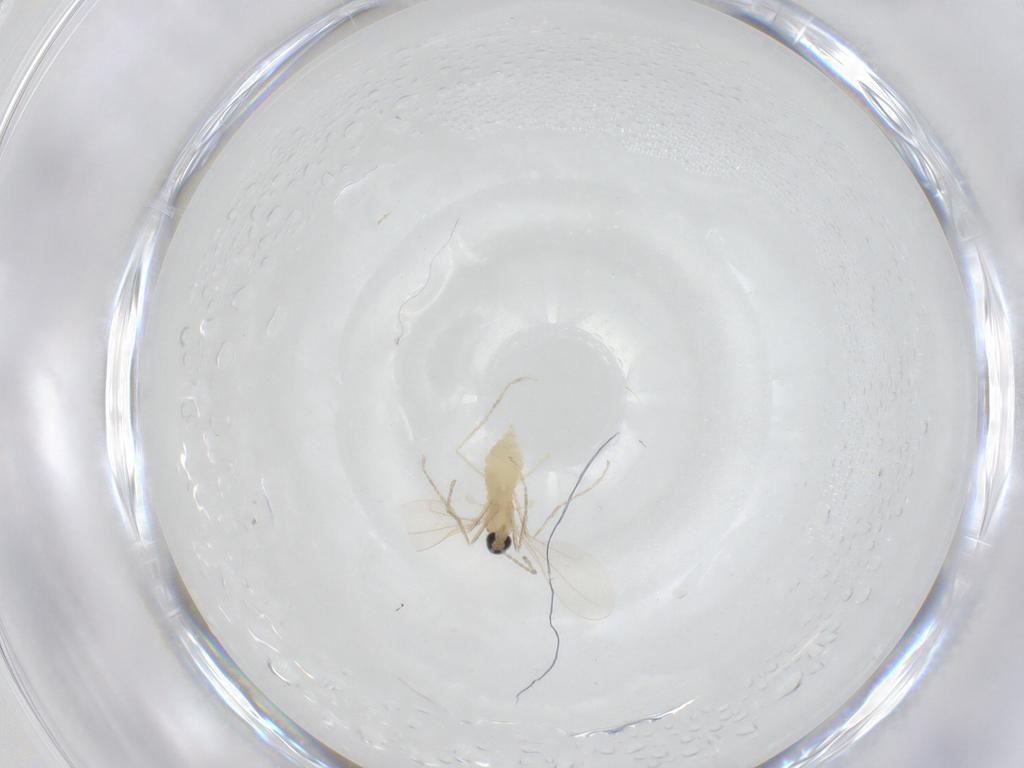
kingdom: Animalia
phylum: Arthropoda
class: Insecta
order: Diptera
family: Cecidomyiidae
